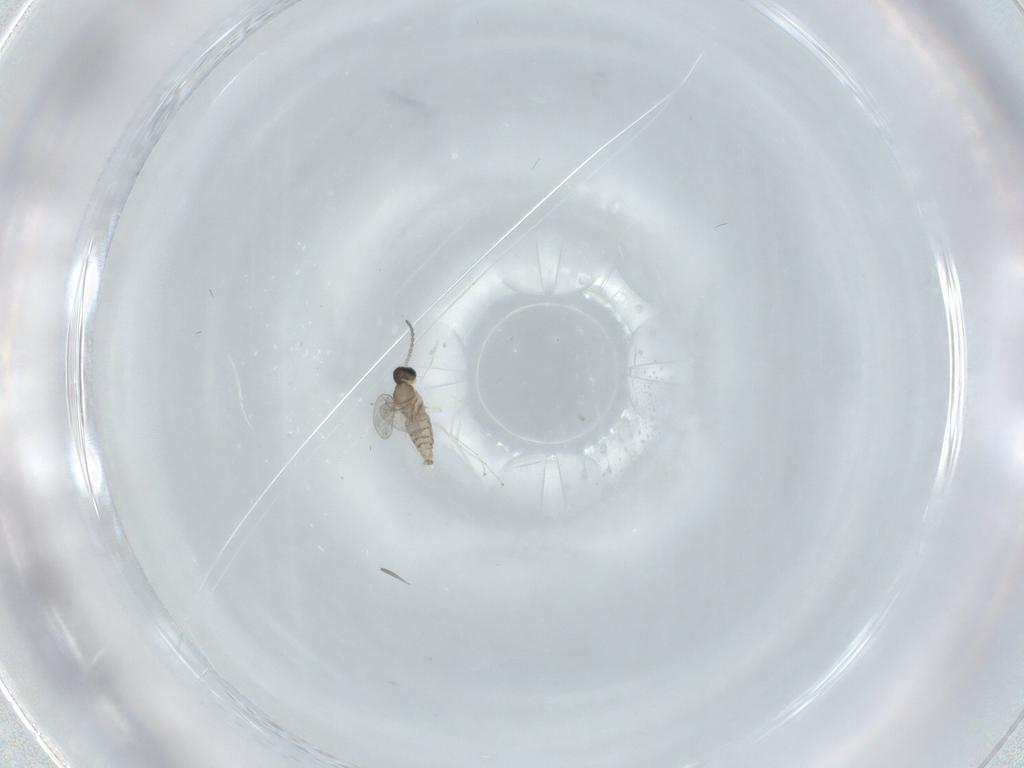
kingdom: Animalia
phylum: Arthropoda
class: Insecta
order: Diptera
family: Cecidomyiidae
